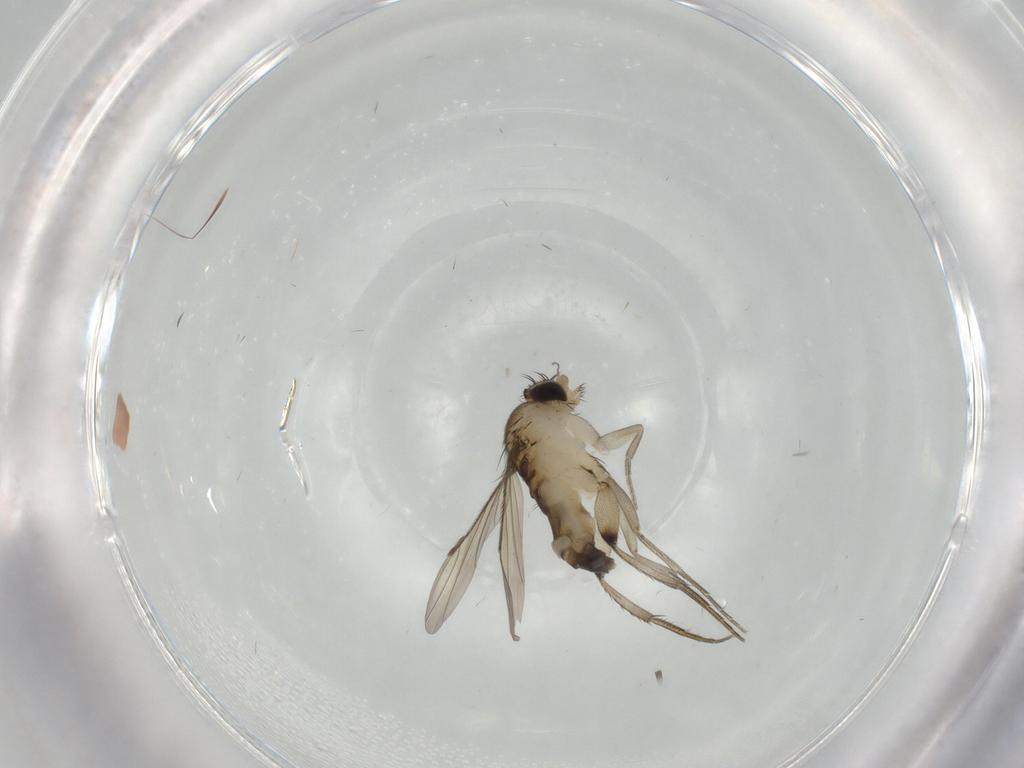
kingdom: Animalia
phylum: Arthropoda
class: Insecta
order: Diptera
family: Phoridae
